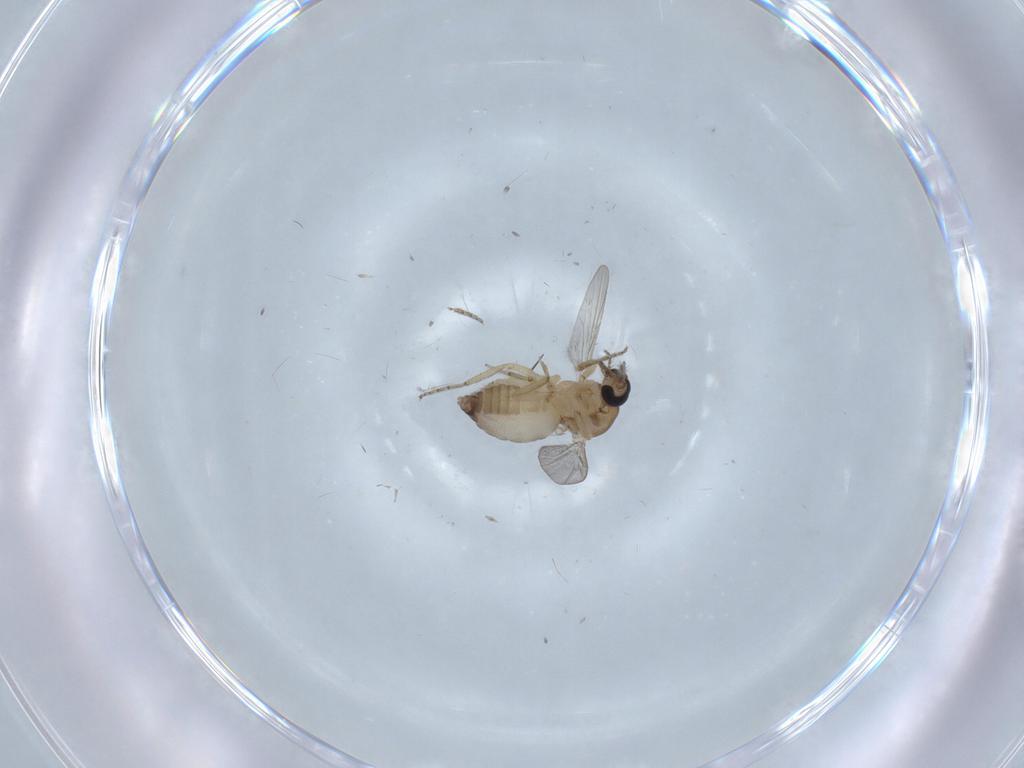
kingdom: Animalia
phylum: Arthropoda
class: Insecta
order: Diptera
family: Ceratopogonidae
